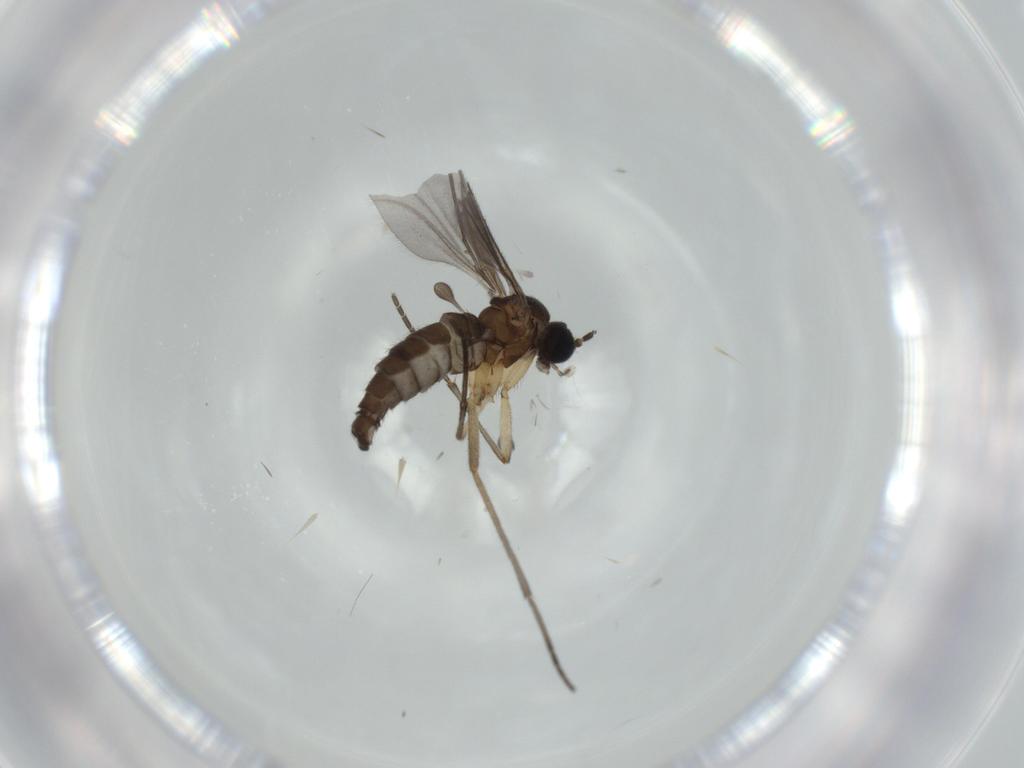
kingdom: Animalia
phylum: Arthropoda
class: Insecta
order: Diptera
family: Sciaridae
